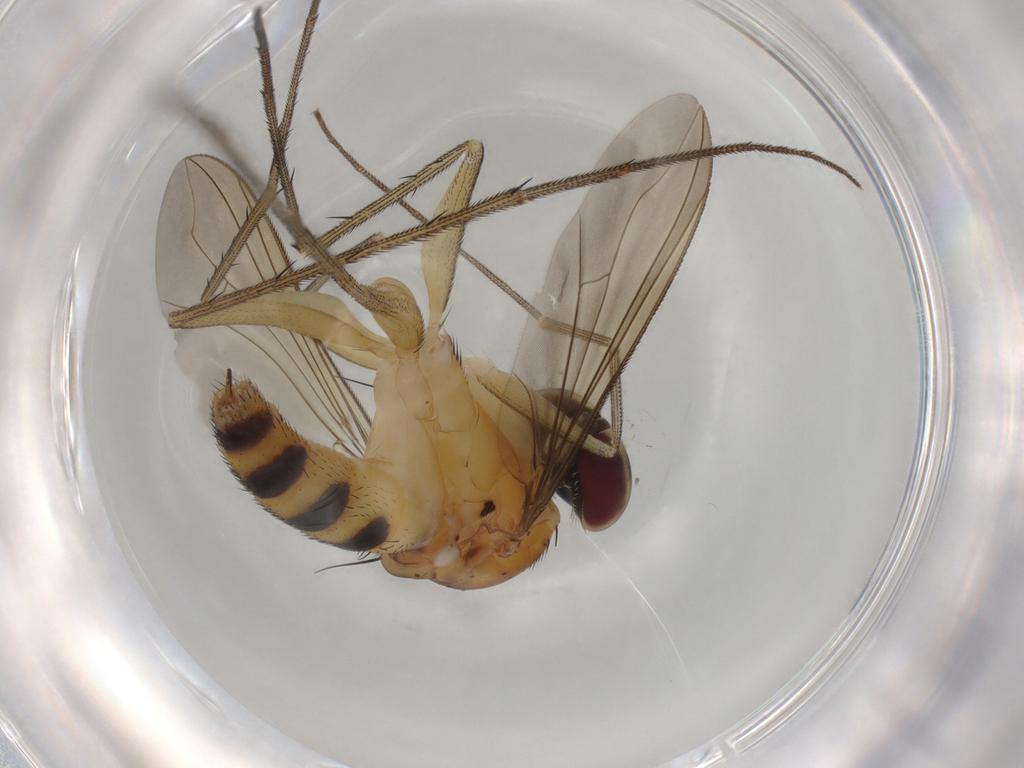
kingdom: Animalia
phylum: Arthropoda
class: Insecta
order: Diptera
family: Dolichopodidae
